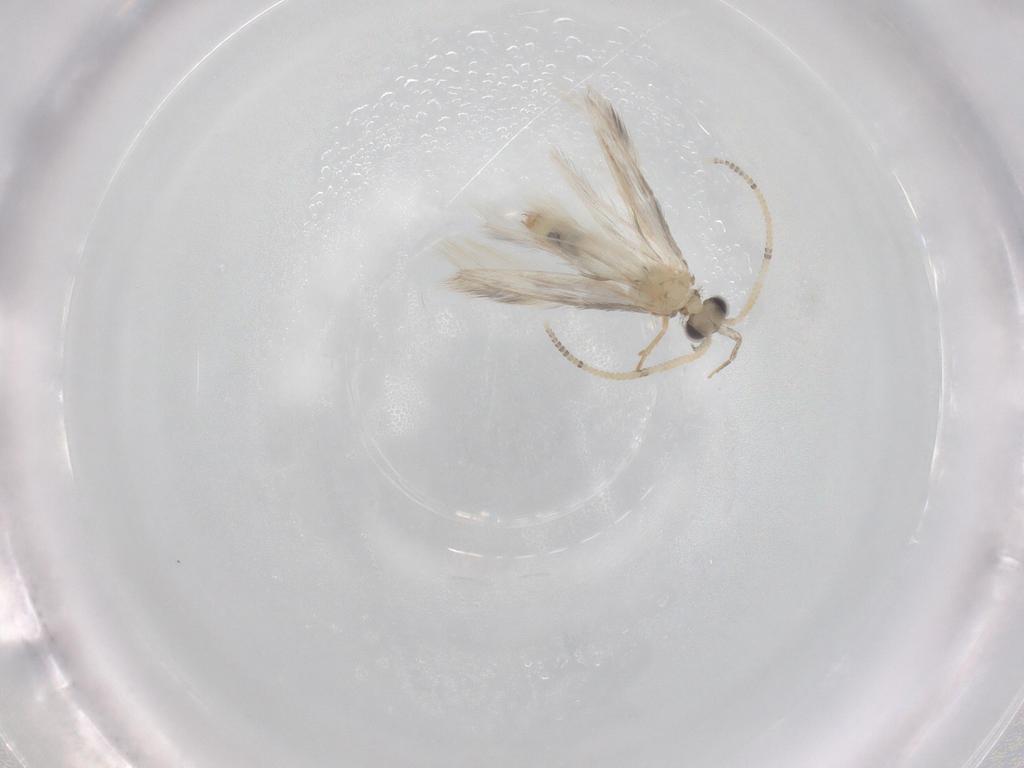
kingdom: Animalia
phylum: Arthropoda
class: Insecta
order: Trichoptera
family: Hydroptilidae
